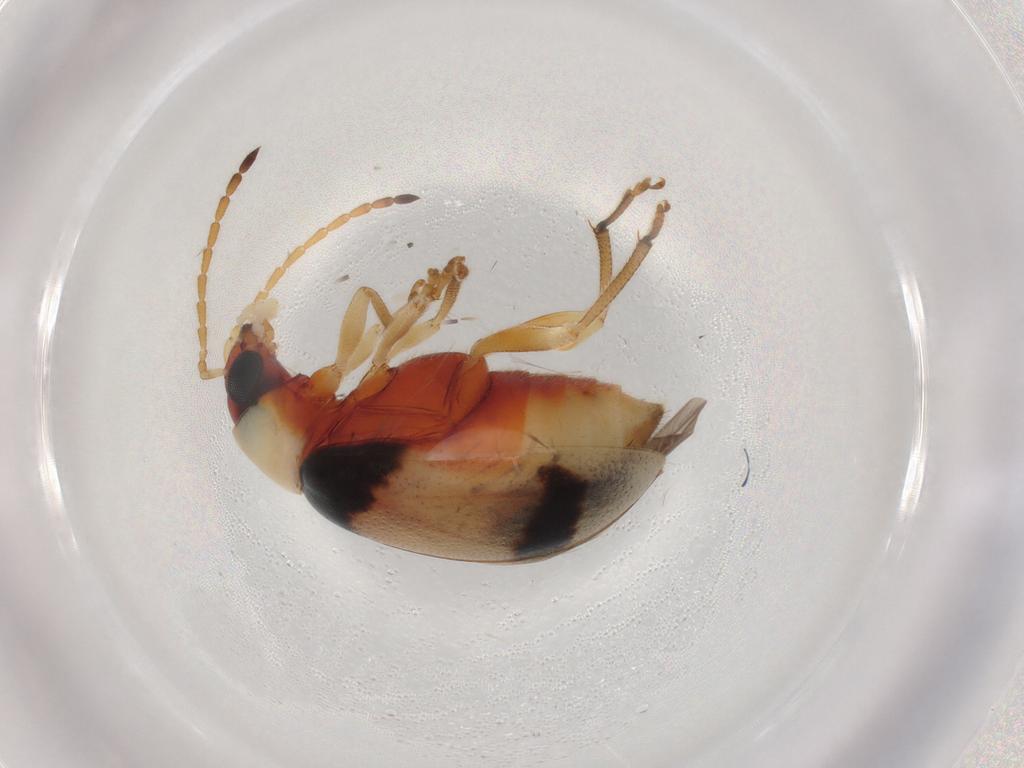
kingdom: Animalia
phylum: Arthropoda
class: Insecta
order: Coleoptera
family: Chrysomelidae
